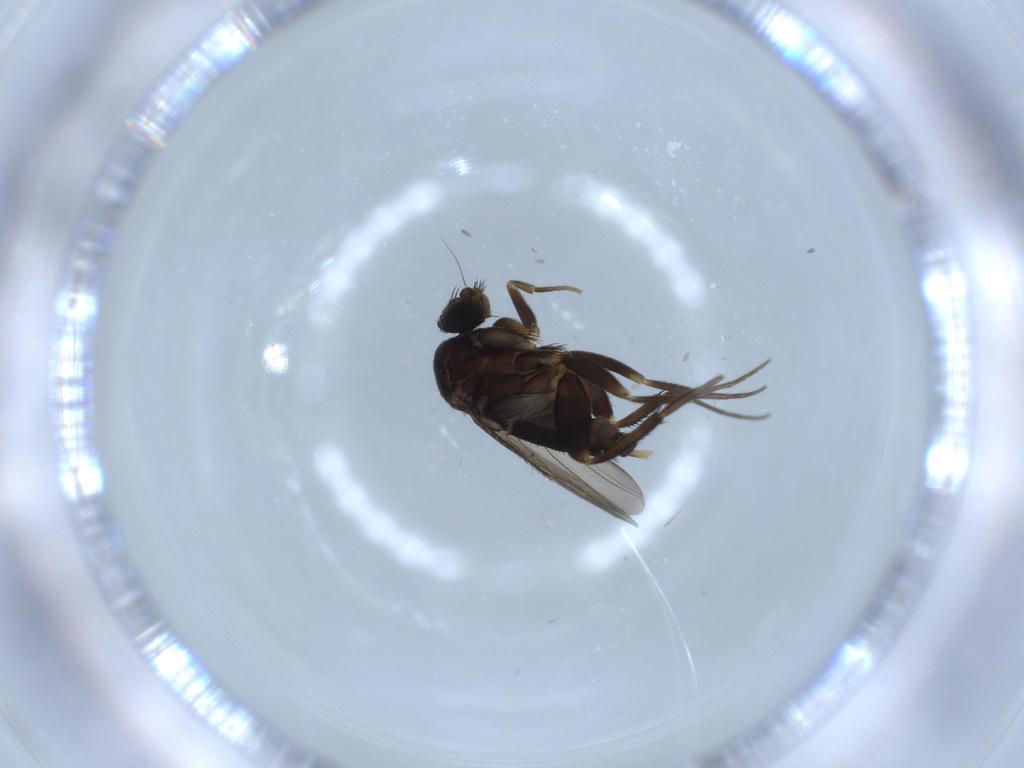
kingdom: Animalia
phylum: Arthropoda
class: Insecta
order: Diptera
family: Phoridae
